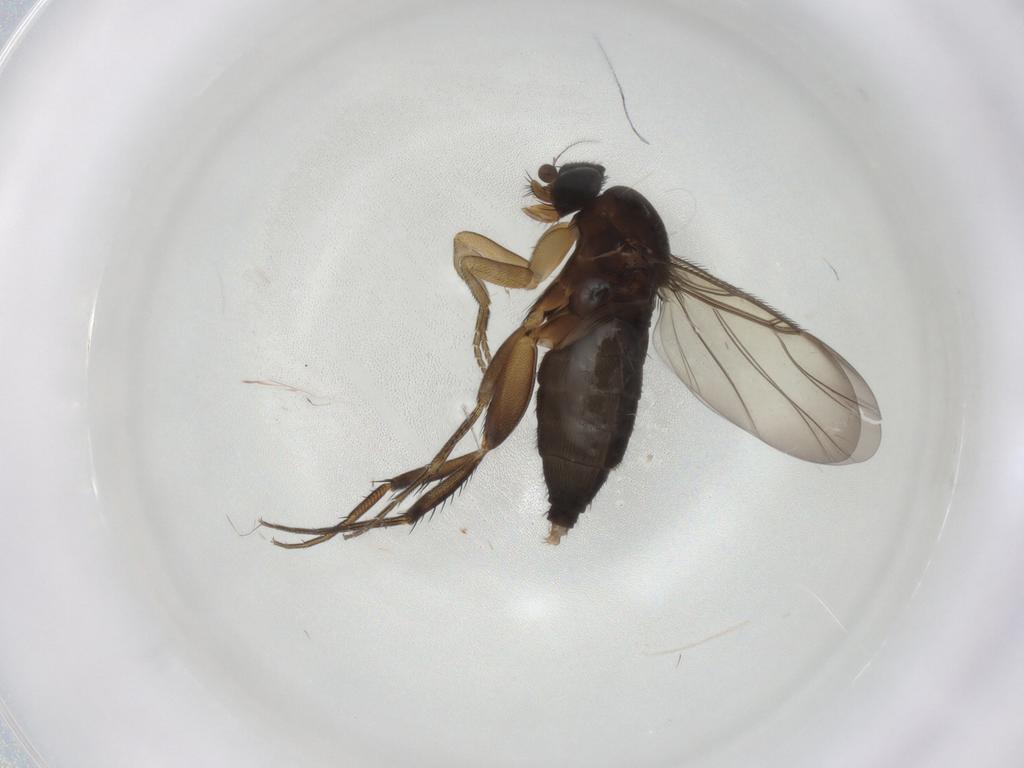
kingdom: Animalia
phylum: Arthropoda
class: Insecta
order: Diptera
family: Phoridae
